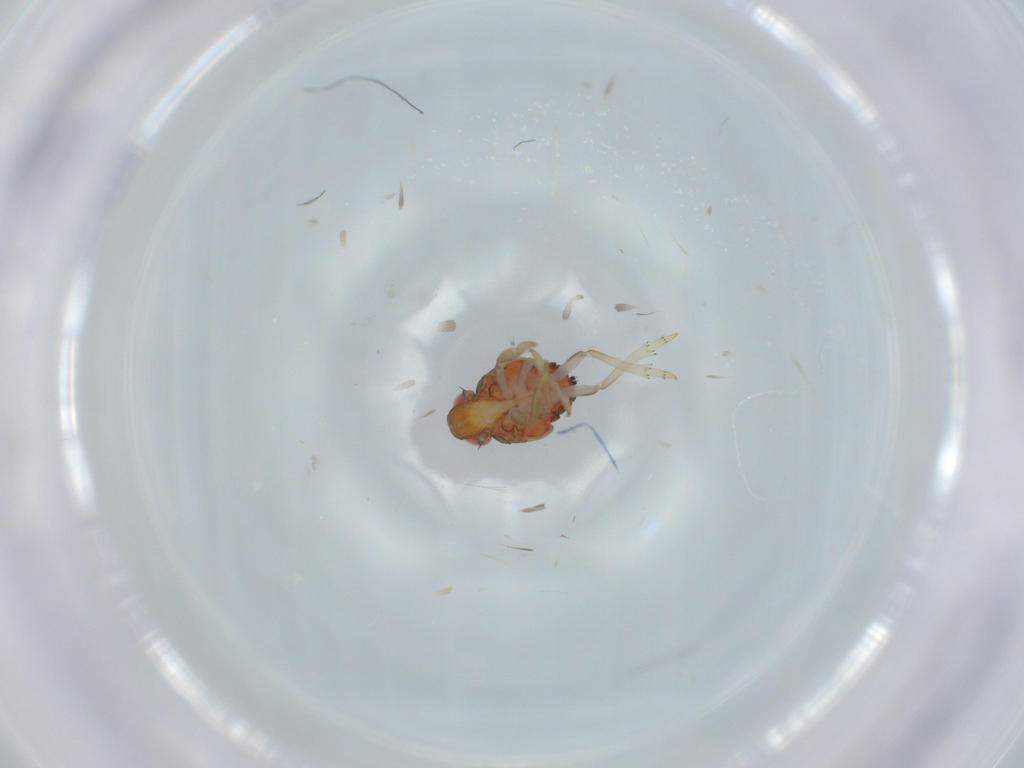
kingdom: Animalia
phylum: Arthropoda
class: Insecta
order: Hemiptera
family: Issidae
